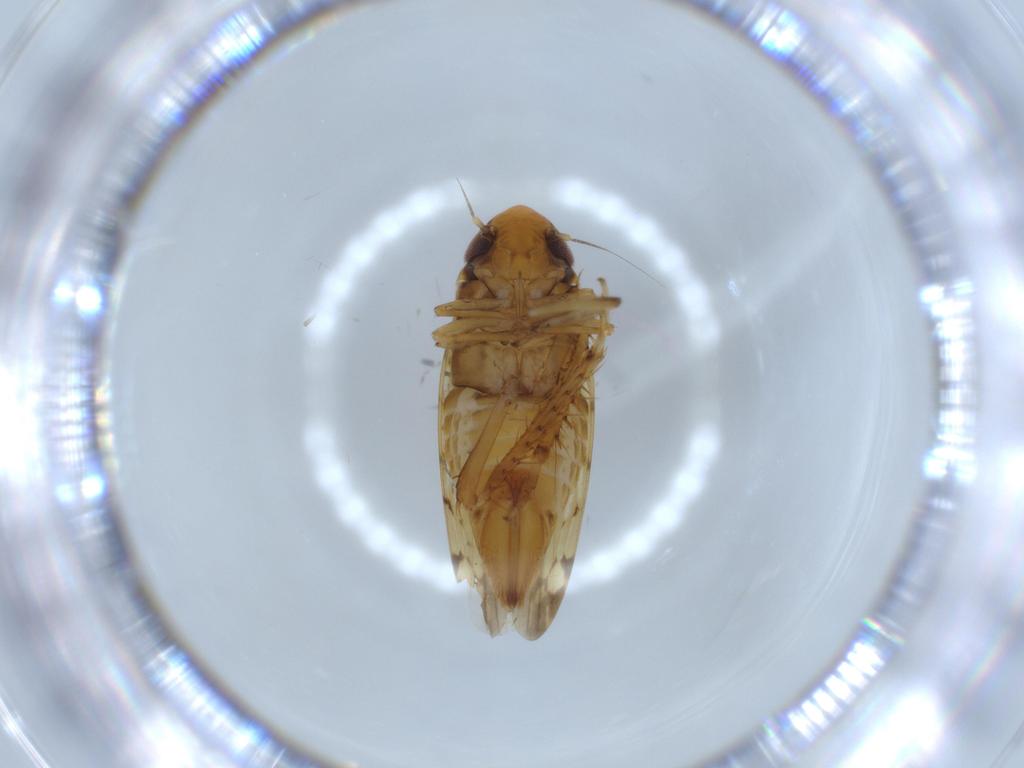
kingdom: Animalia
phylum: Arthropoda
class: Insecta
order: Hemiptera
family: Cicadellidae
